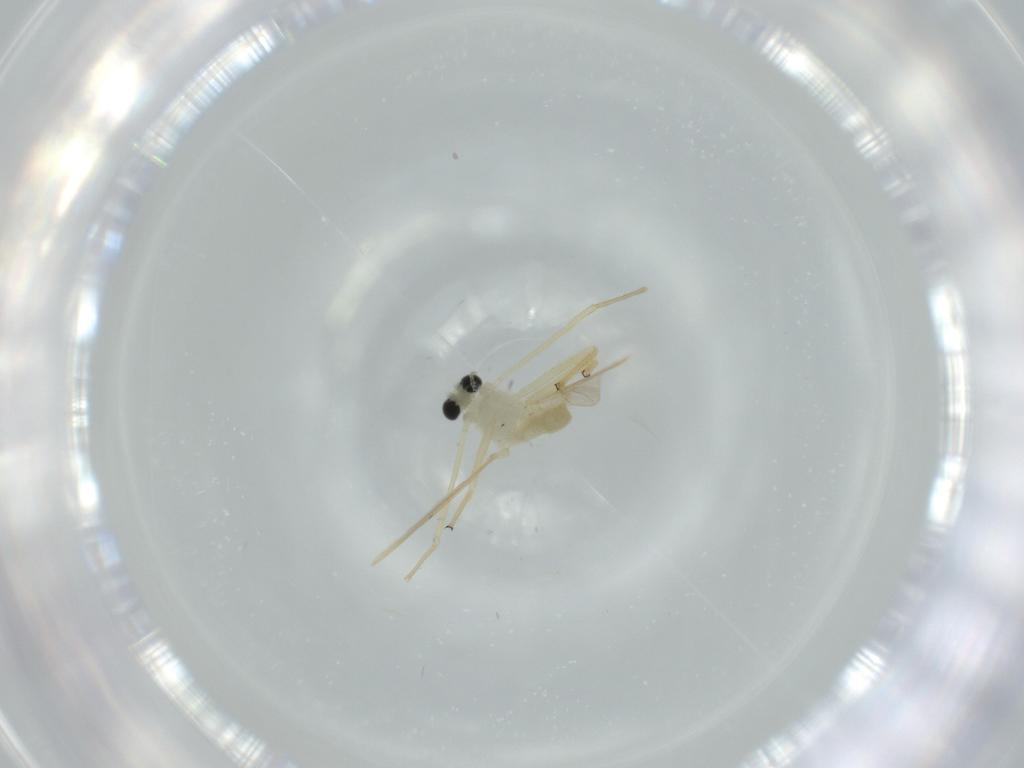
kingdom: Animalia
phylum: Arthropoda
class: Insecta
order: Diptera
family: Chironomidae
